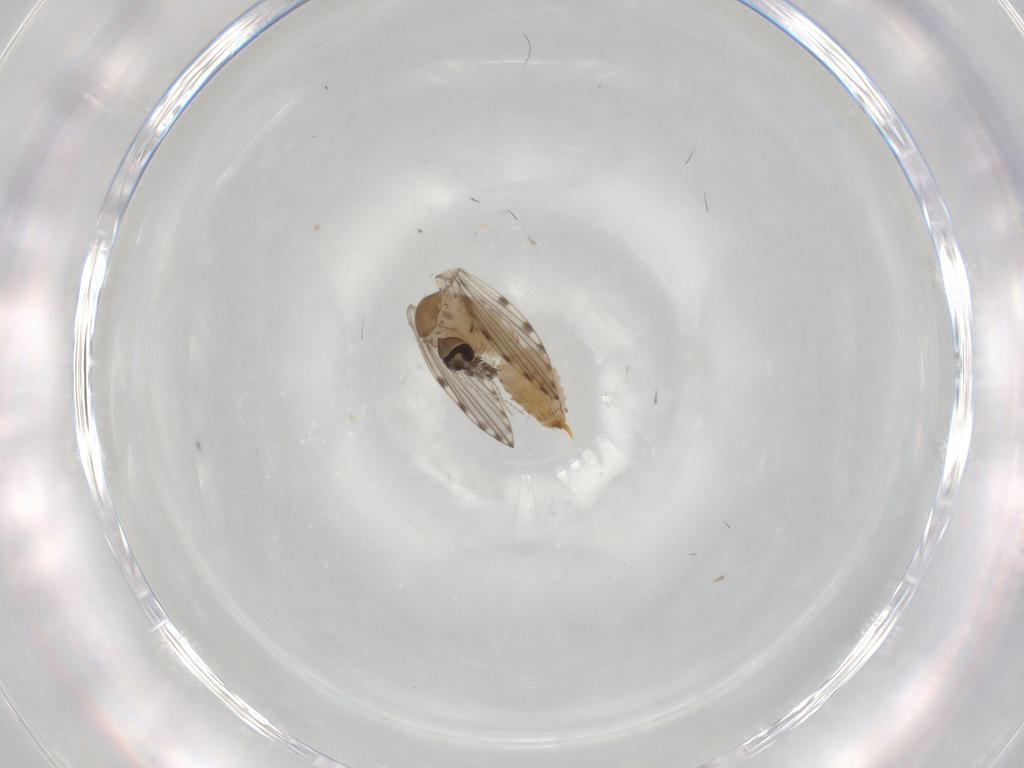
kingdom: Animalia
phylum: Arthropoda
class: Insecta
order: Diptera
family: Psychodidae
